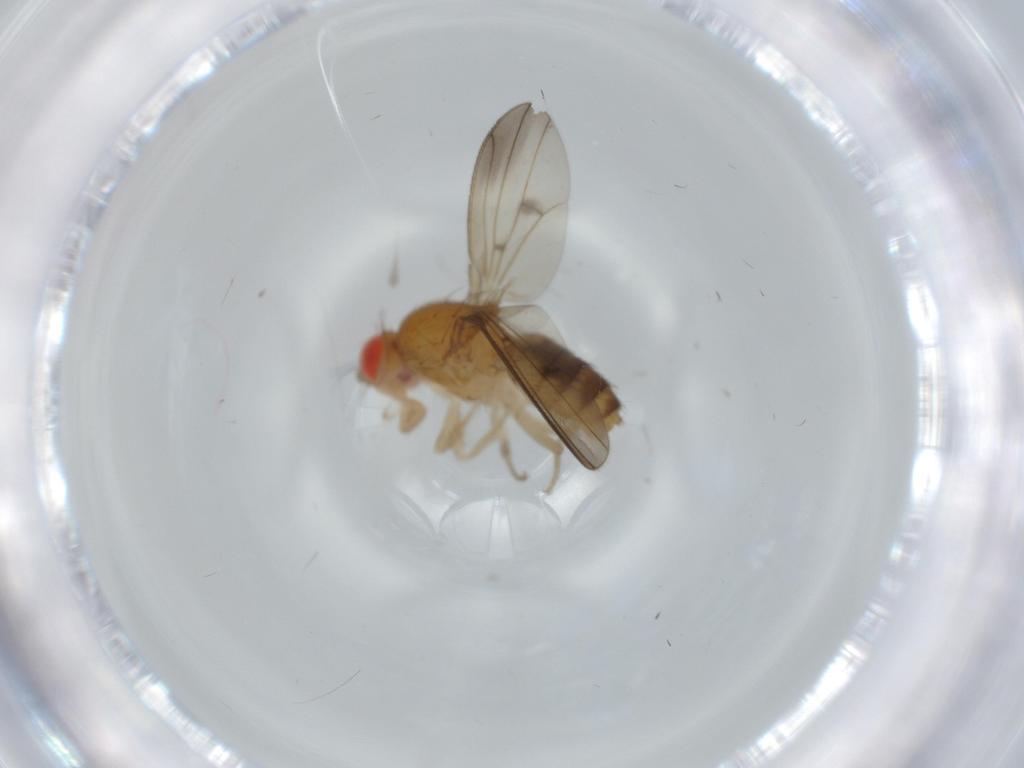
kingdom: Animalia
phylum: Arthropoda
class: Insecta
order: Diptera
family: Drosophilidae
